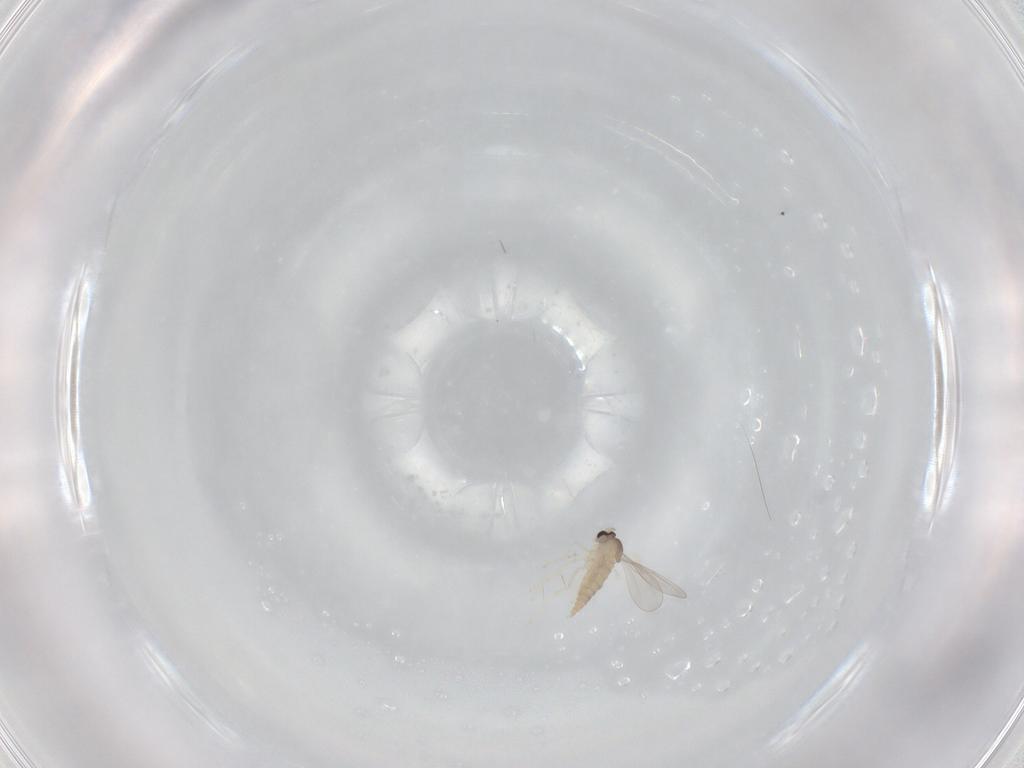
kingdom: Animalia
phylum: Arthropoda
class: Insecta
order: Diptera
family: Cecidomyiidae
